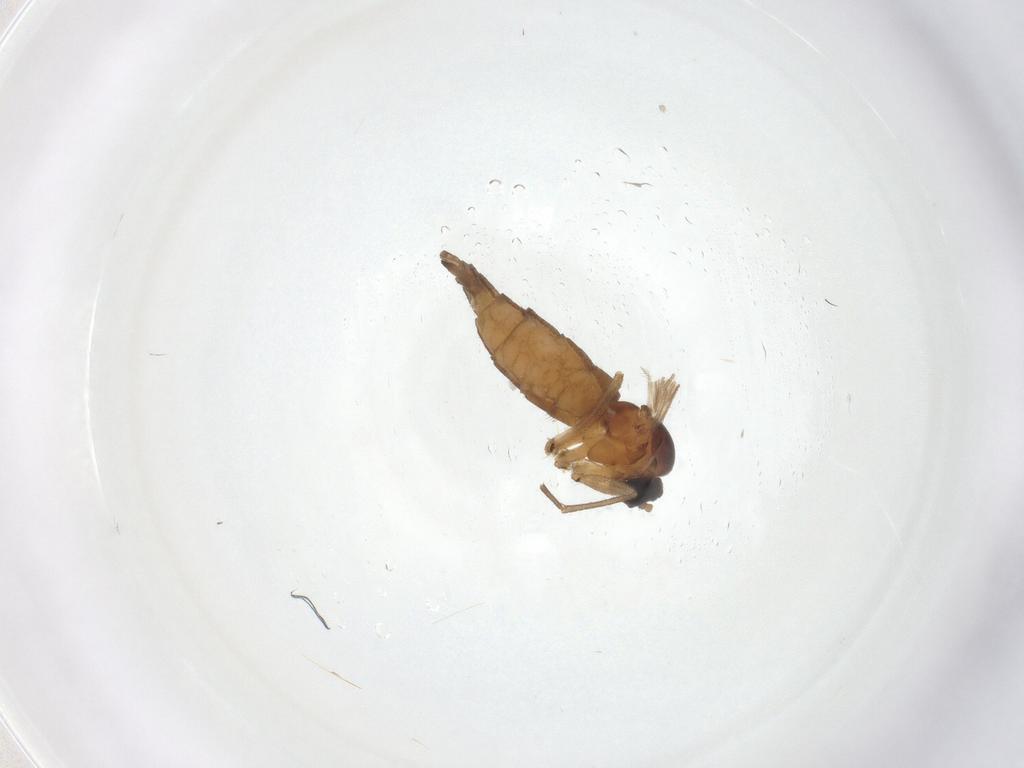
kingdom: Animalia
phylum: Arthropoda
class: Insecta
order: Diptera
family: Sciaridae
